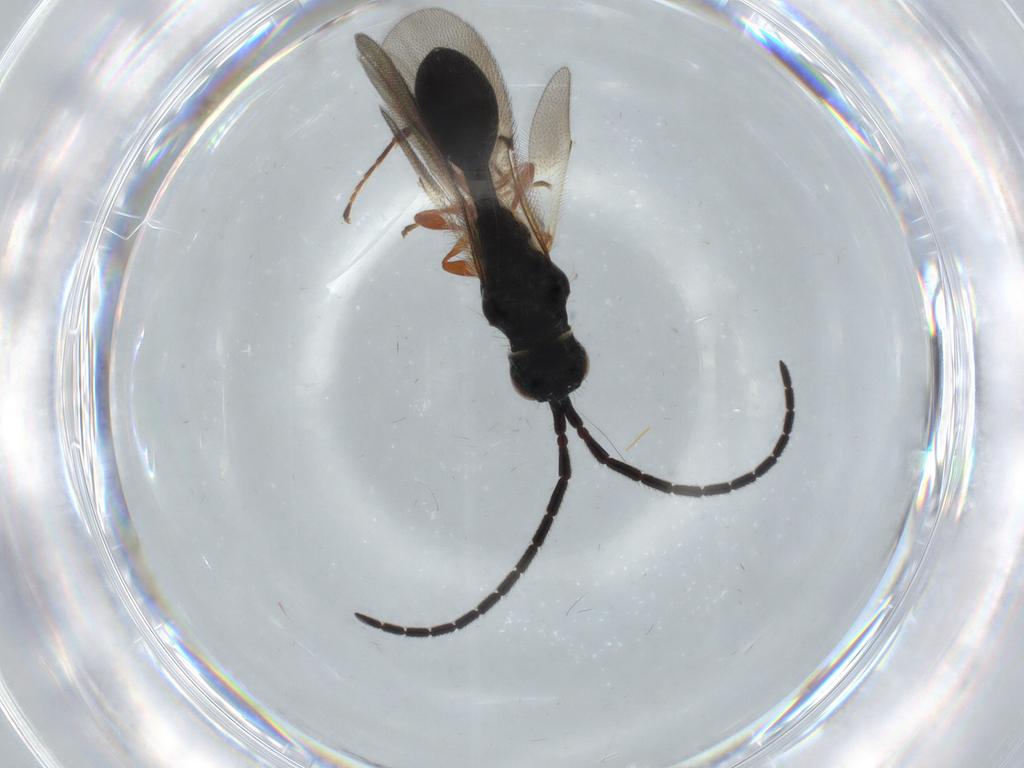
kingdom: Animalia
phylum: Arthropoda
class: Insecta
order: Hymenoptera
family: Diapriidae
